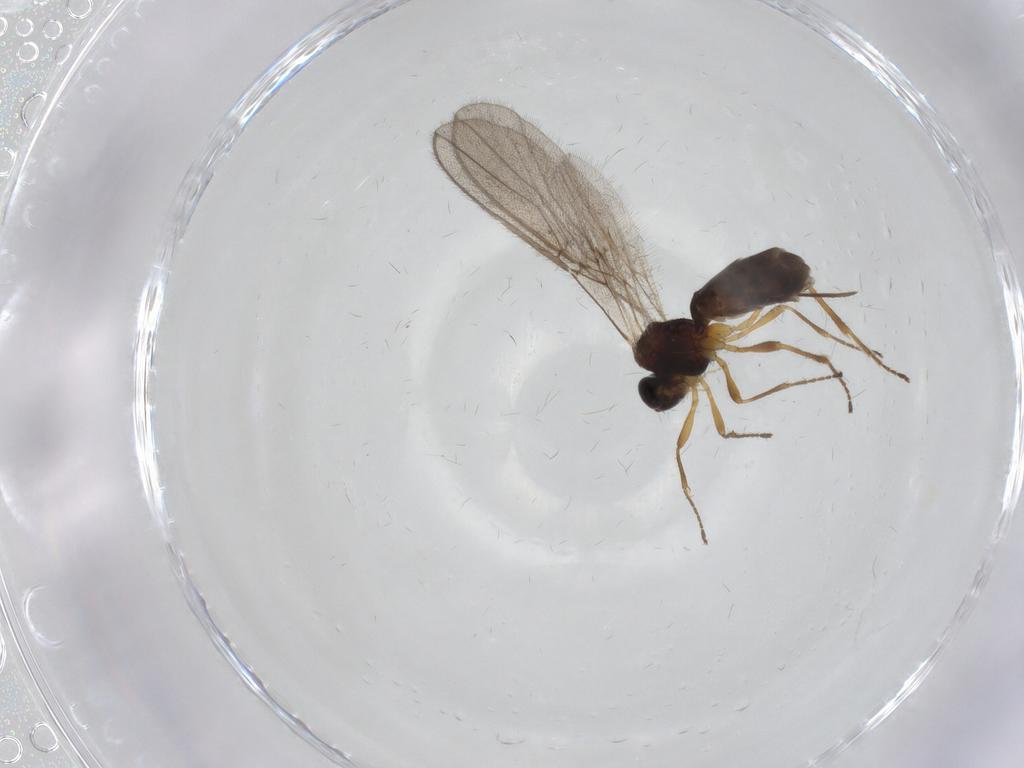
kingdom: Animalia
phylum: Arthropoda
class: Insecta
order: Hymenoptera
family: Braconidae
